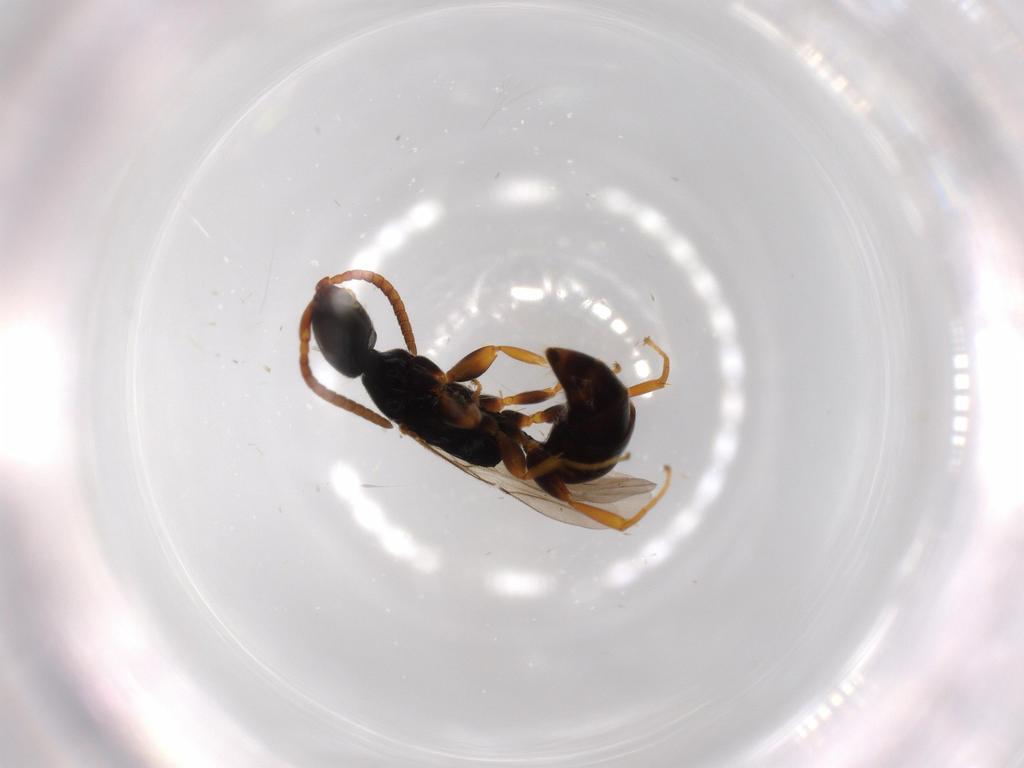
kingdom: Animalia
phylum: Arthropoda
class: Insecta
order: Hymenoptera
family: Bethylidae
